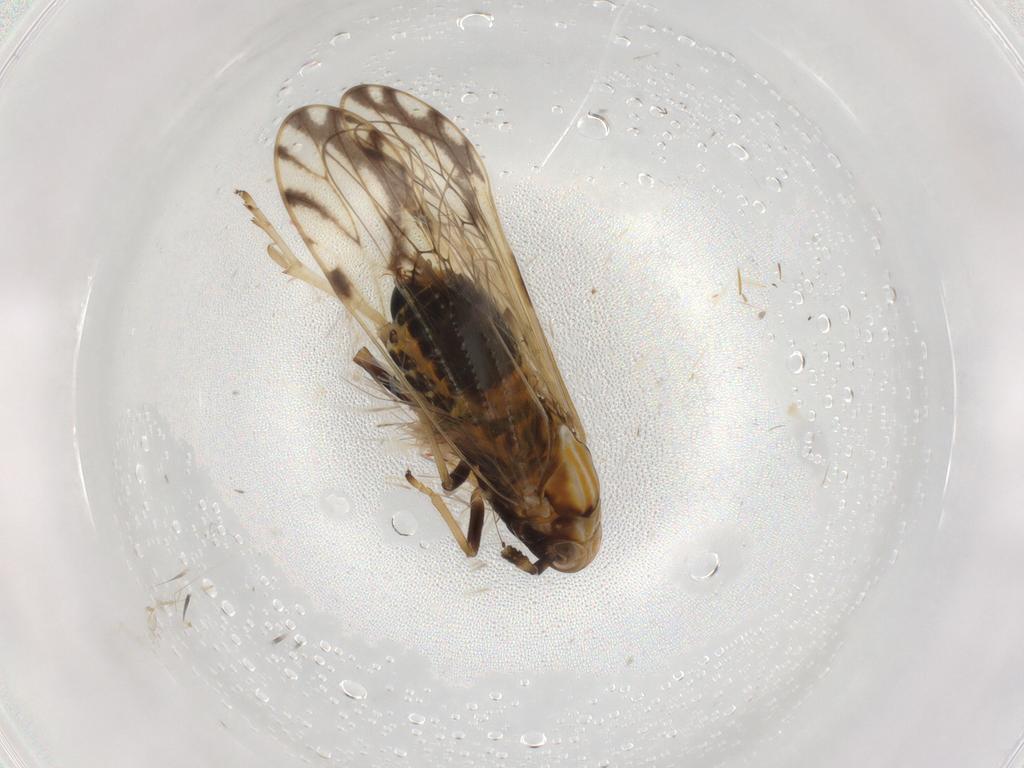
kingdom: Animalia
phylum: Arthropoda
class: Insecta
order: Hemiptera
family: Delphacidae
